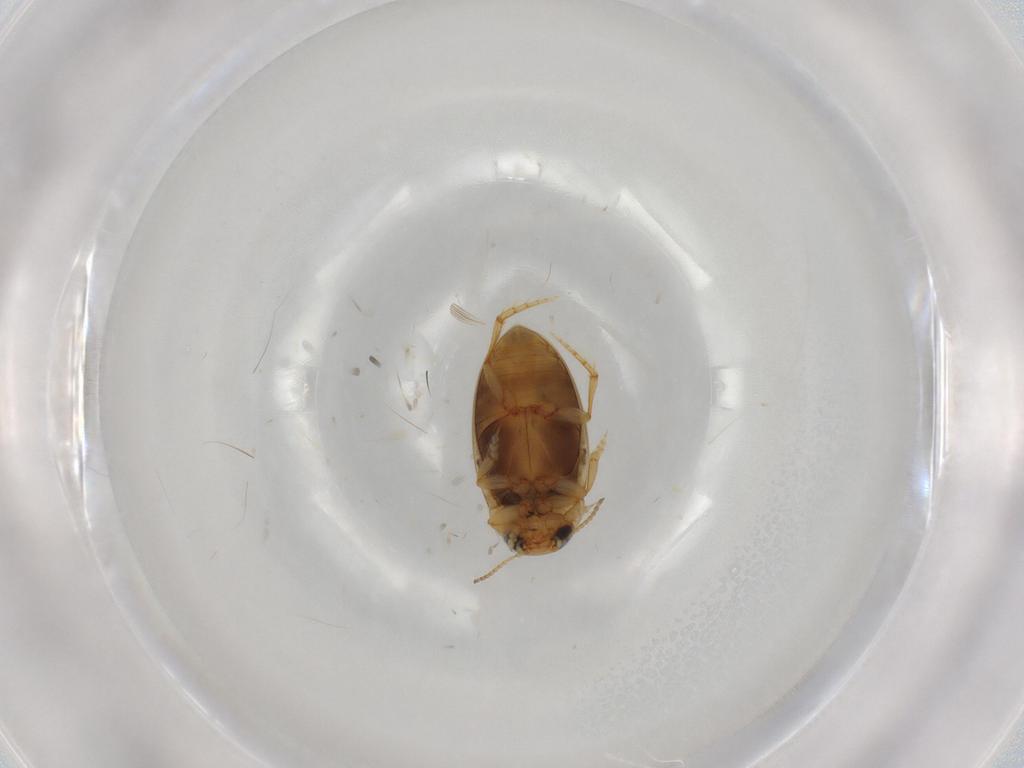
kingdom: Animalia
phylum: Arthropoda
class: Insecta
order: Coleoptera
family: Dytiscidae
